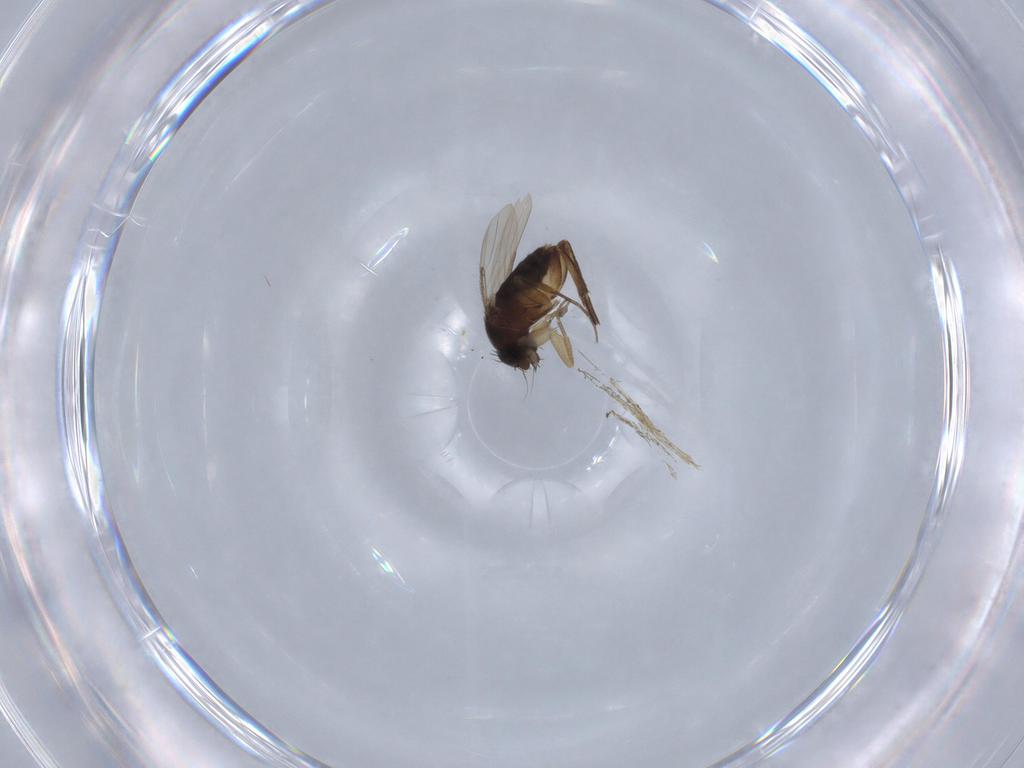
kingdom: Animalia
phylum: Arthropoda
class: Insecta
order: Diptera
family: Phoridae
